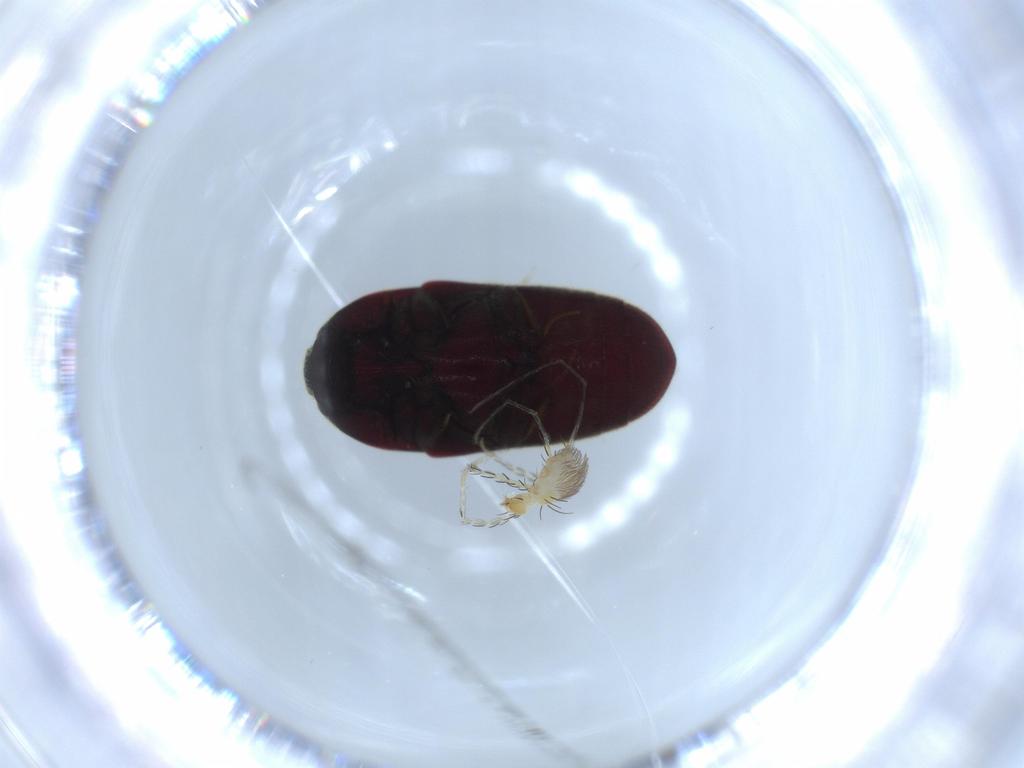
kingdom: Animalia
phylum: Arthropoda
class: Insecta
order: Coleoptera
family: Throscidae
